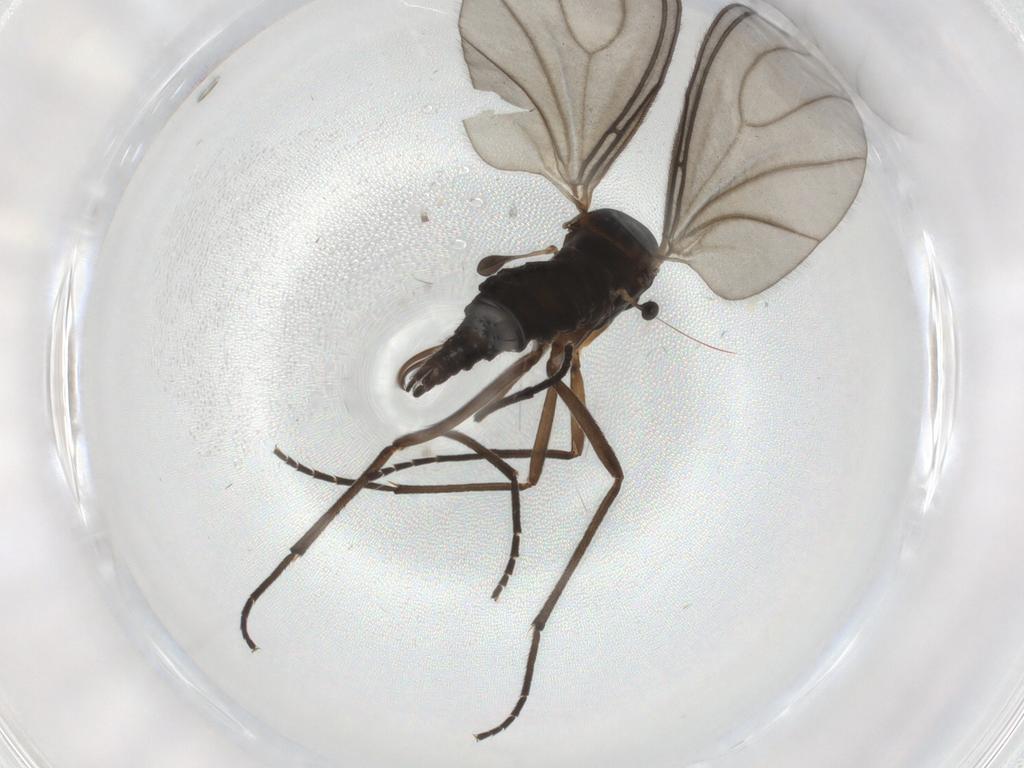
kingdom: Animalia
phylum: Arthropoda
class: Insecta
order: Diptera
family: Sciaridae
